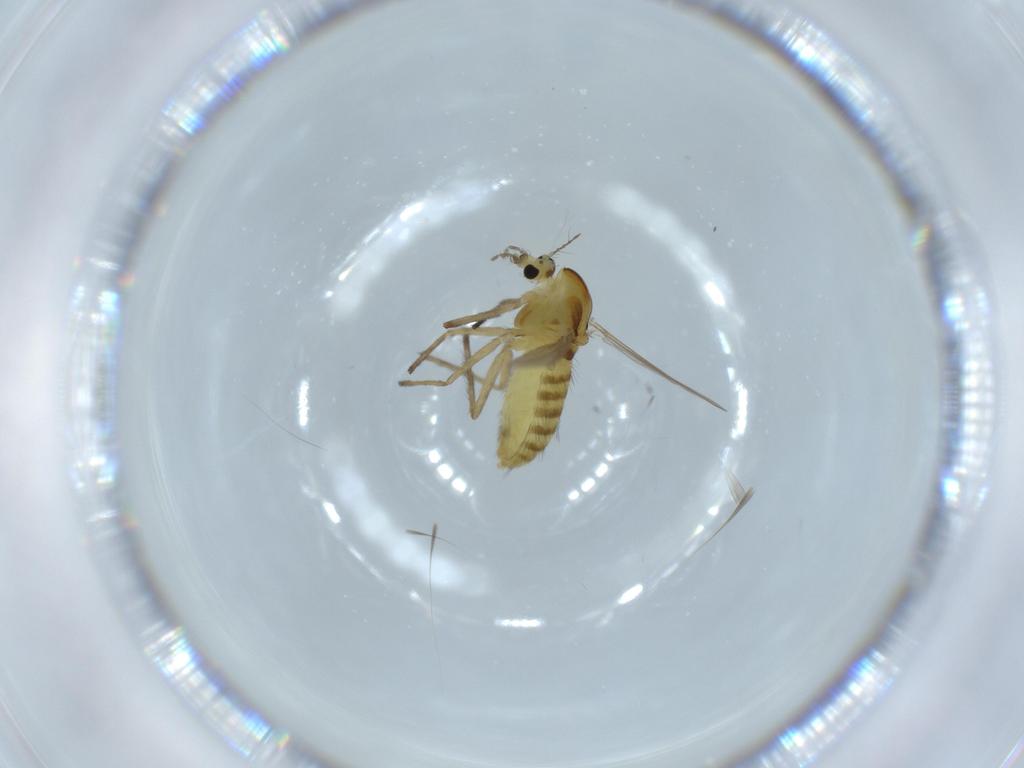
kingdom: Animalia
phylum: Arthropoda
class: Insecta
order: Diptera
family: Chironomidae
